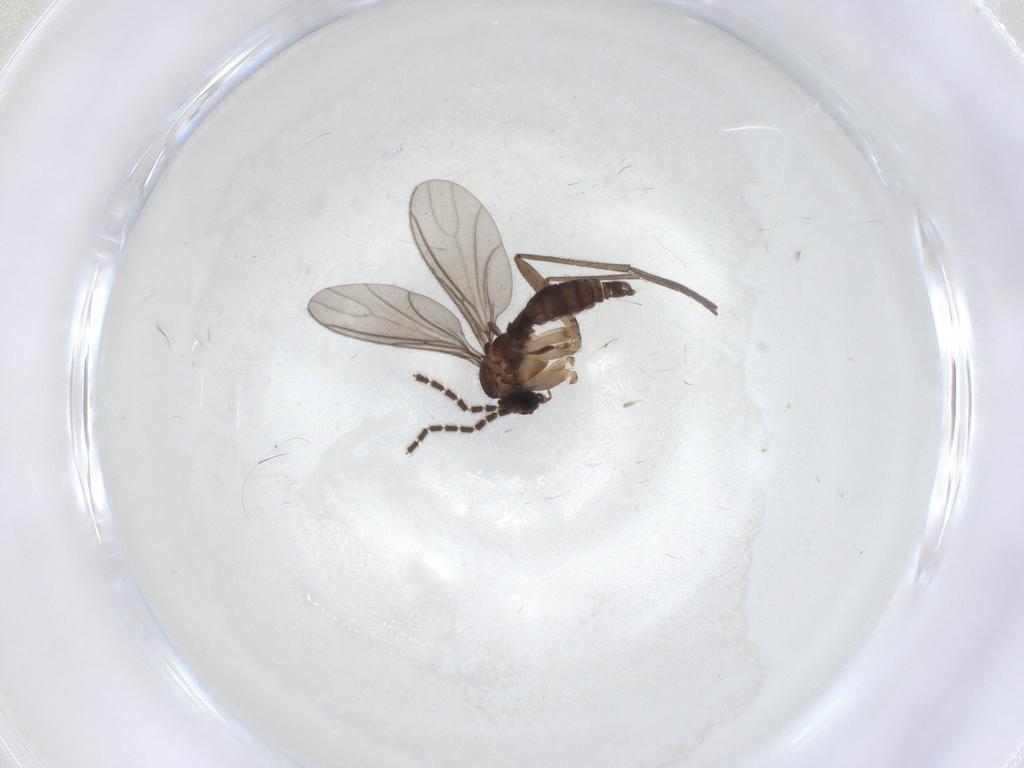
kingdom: Animalia
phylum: Arthropoda
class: Insecta
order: Diptera
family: Sciaridae
